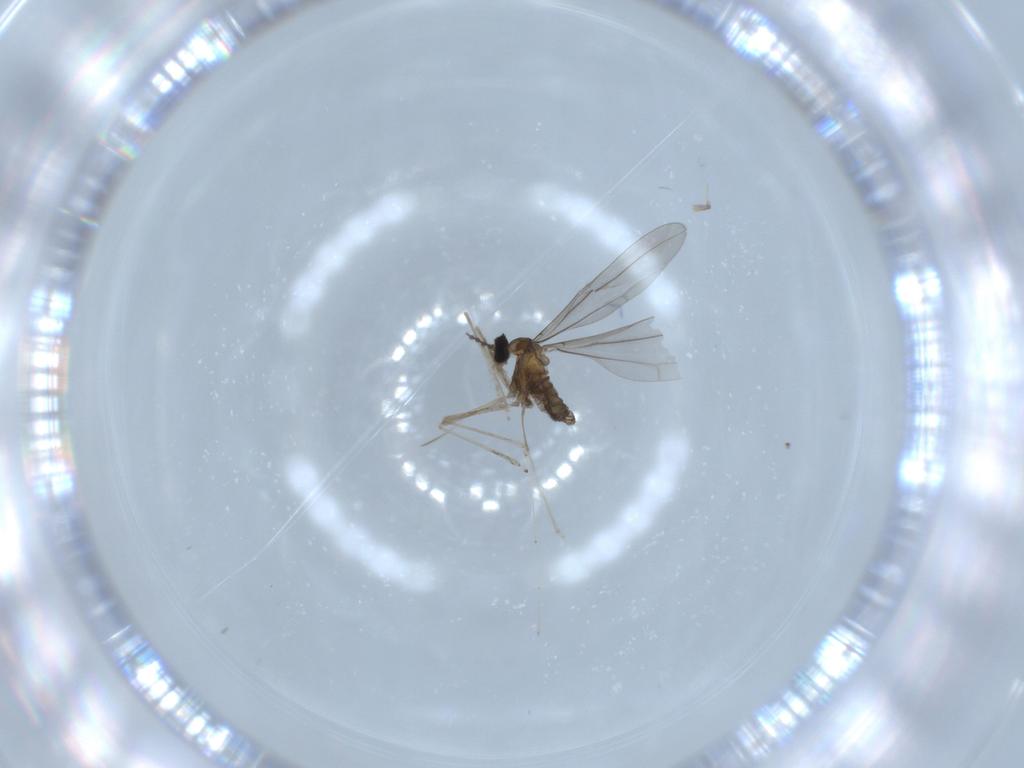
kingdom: Animalia
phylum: Arthropoda
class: Insecta
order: Diptera
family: Cecidomyiidae
